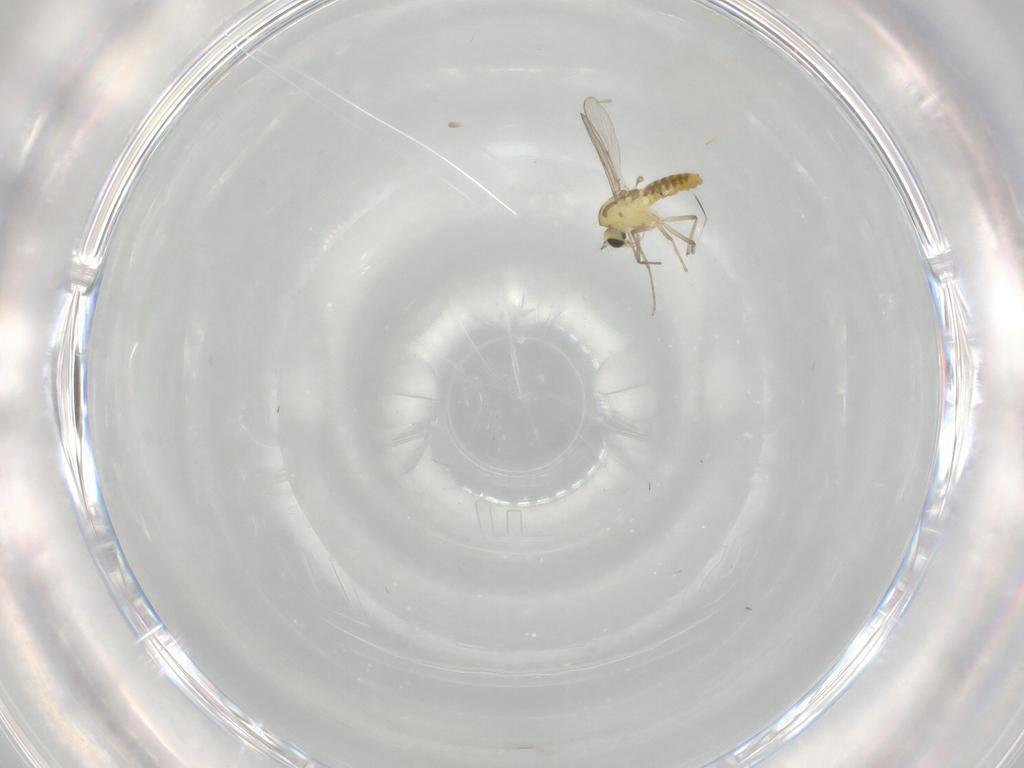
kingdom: Animalia
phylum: Arthropoda
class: Insecta
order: Diptera
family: Chironomidae
